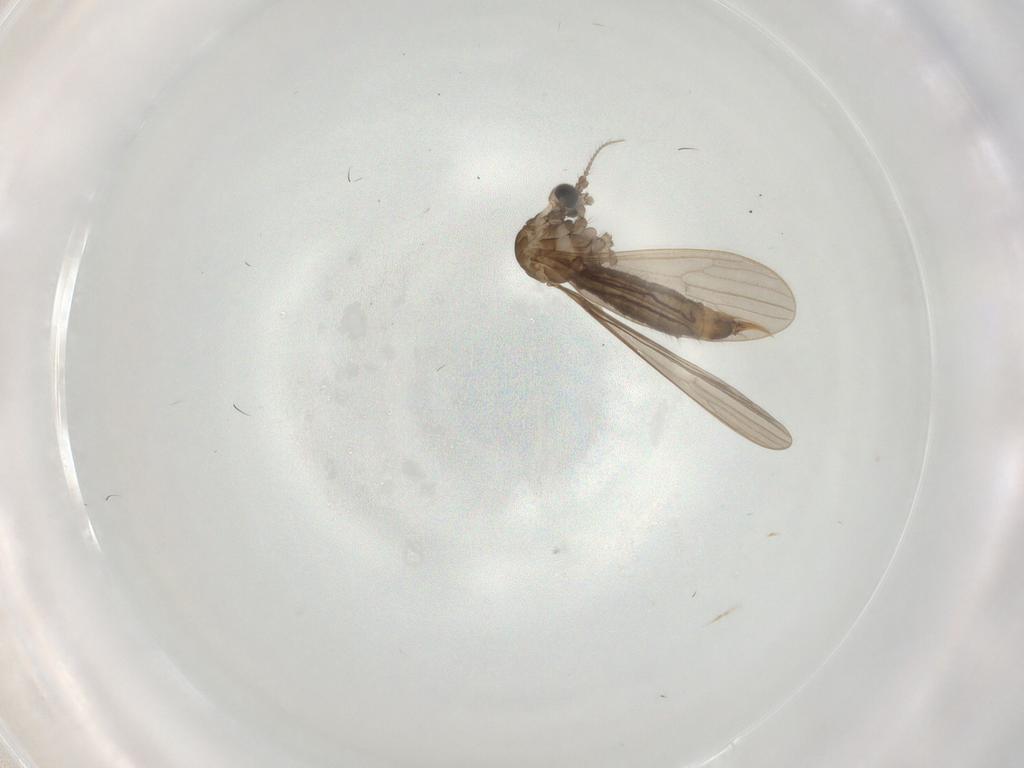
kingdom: Animalia
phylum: Arthropoda
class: Insecta
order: Diptera
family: Limoniidae
